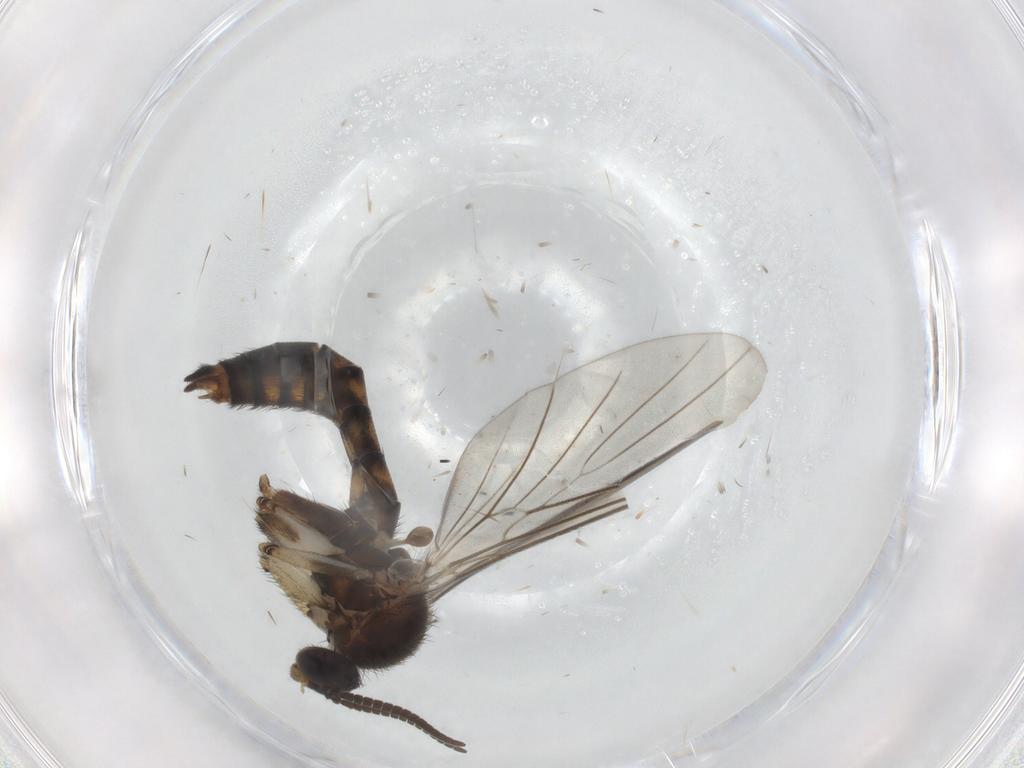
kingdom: Animalia
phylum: Arthropoda
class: Insecta
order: Diptera
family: Keroplatidae
